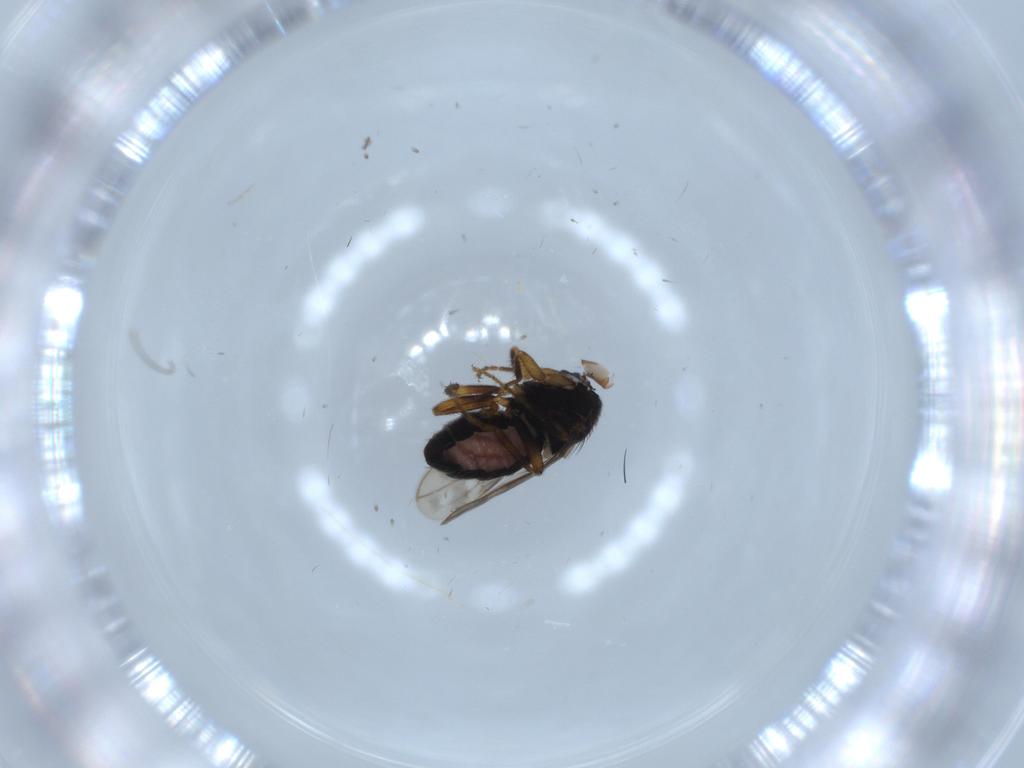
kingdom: Animalia
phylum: Arthropoda
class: Insecta
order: Diptera
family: Sphaeroceridae
